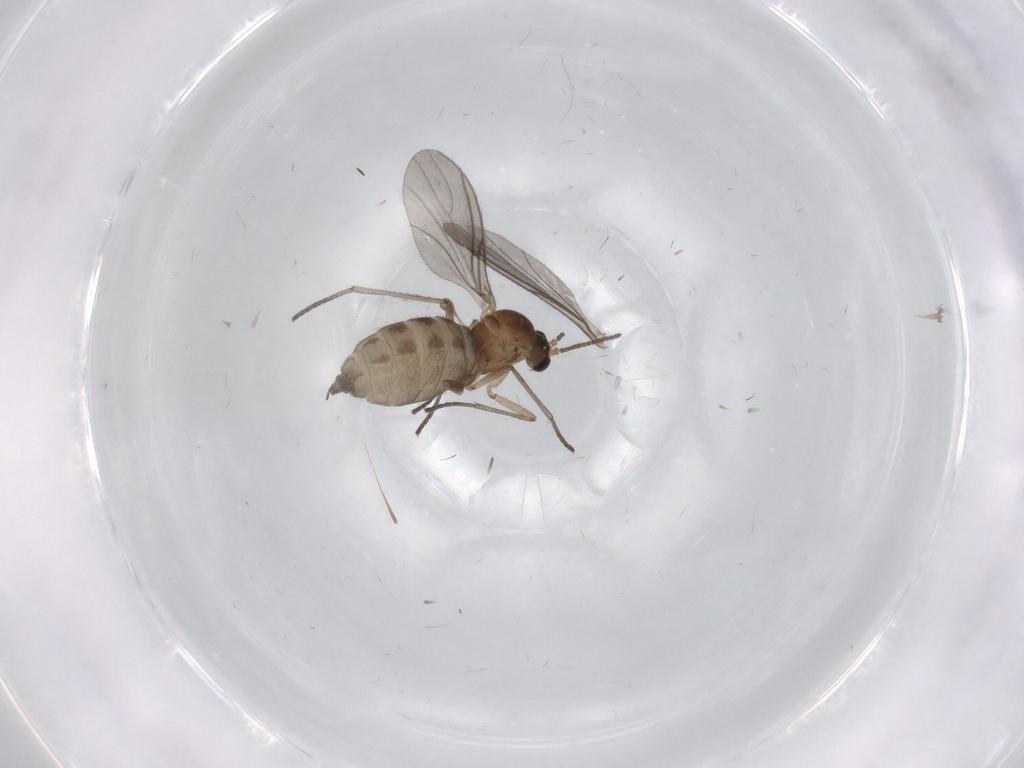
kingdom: Animalia
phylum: Arthropoda
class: Insecta
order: Diptera
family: Sciaridae
